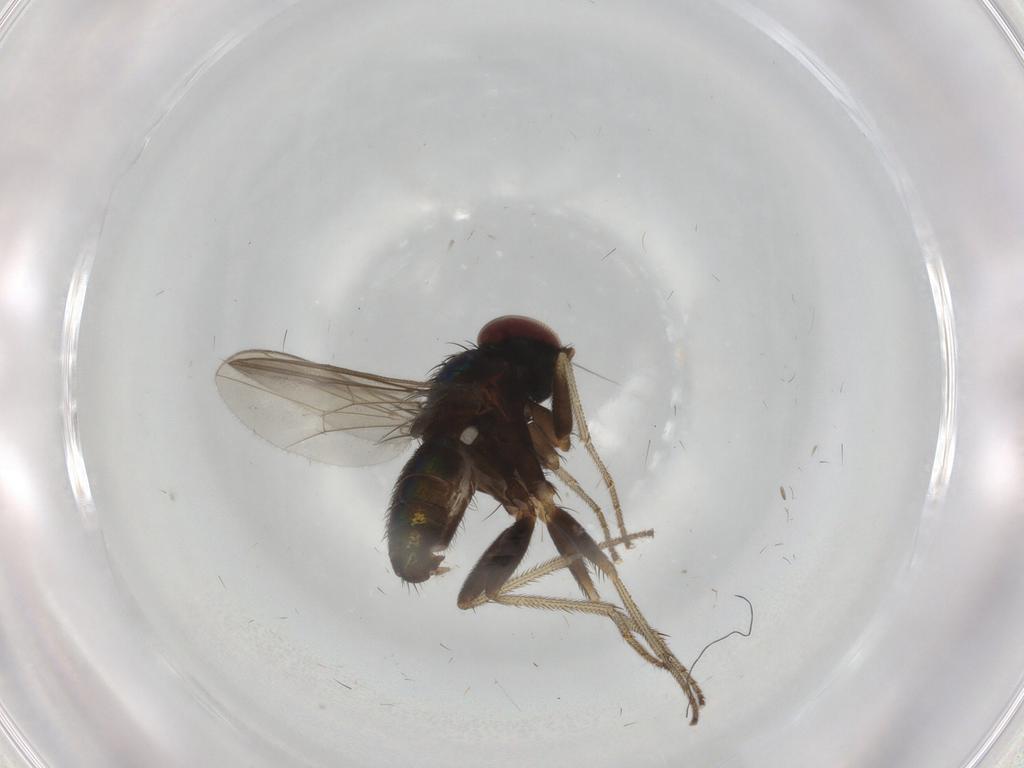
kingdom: Animalia
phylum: Arthropoda
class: Insecta
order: Diptera
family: Dolichopodidae
